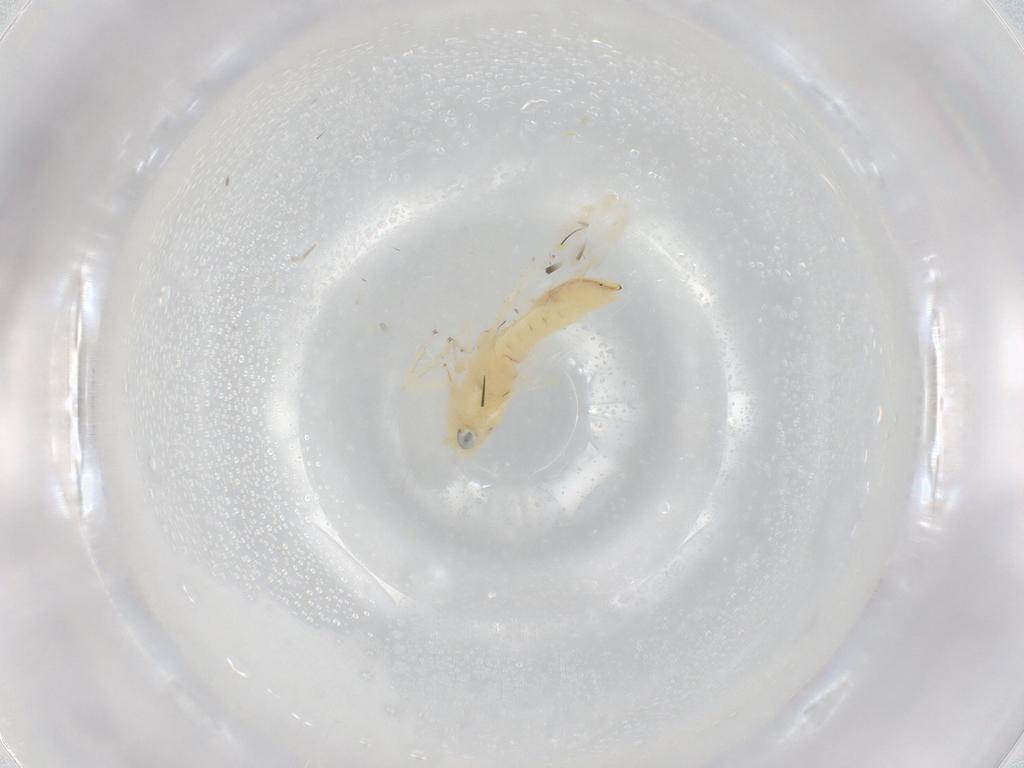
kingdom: Animalia
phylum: Arthropoda
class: Insecta
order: Hemiptera
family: Cicadellidae
